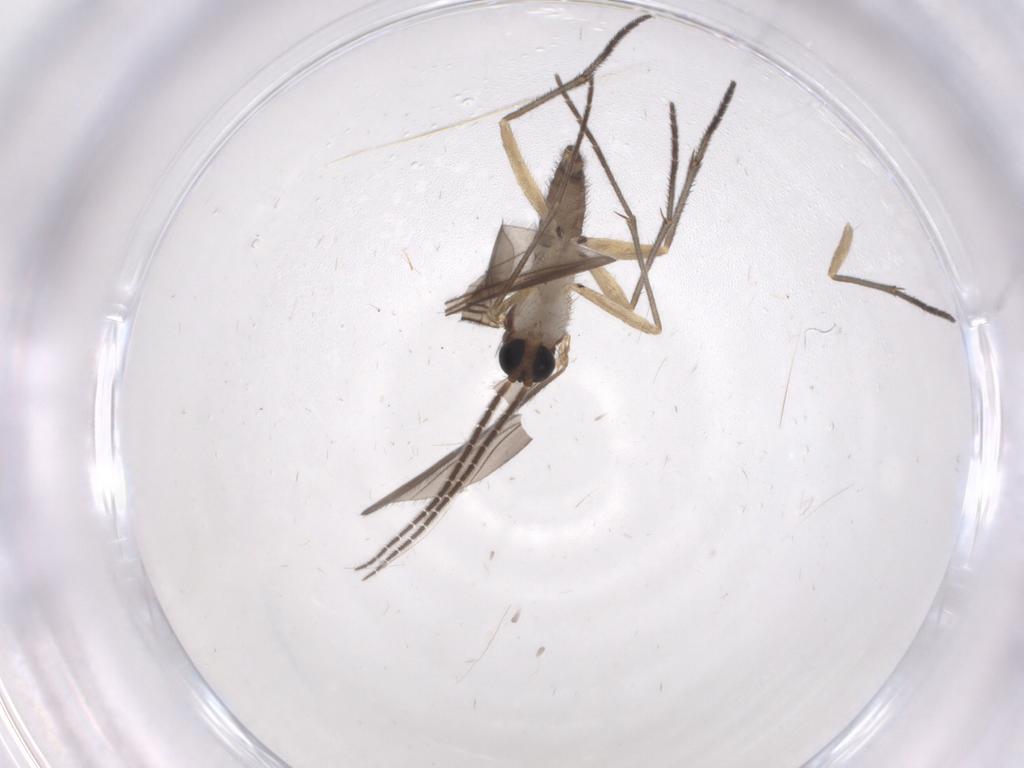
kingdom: Animalia
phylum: Arthropoda
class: Insecta
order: Diptera
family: Sciaridae
